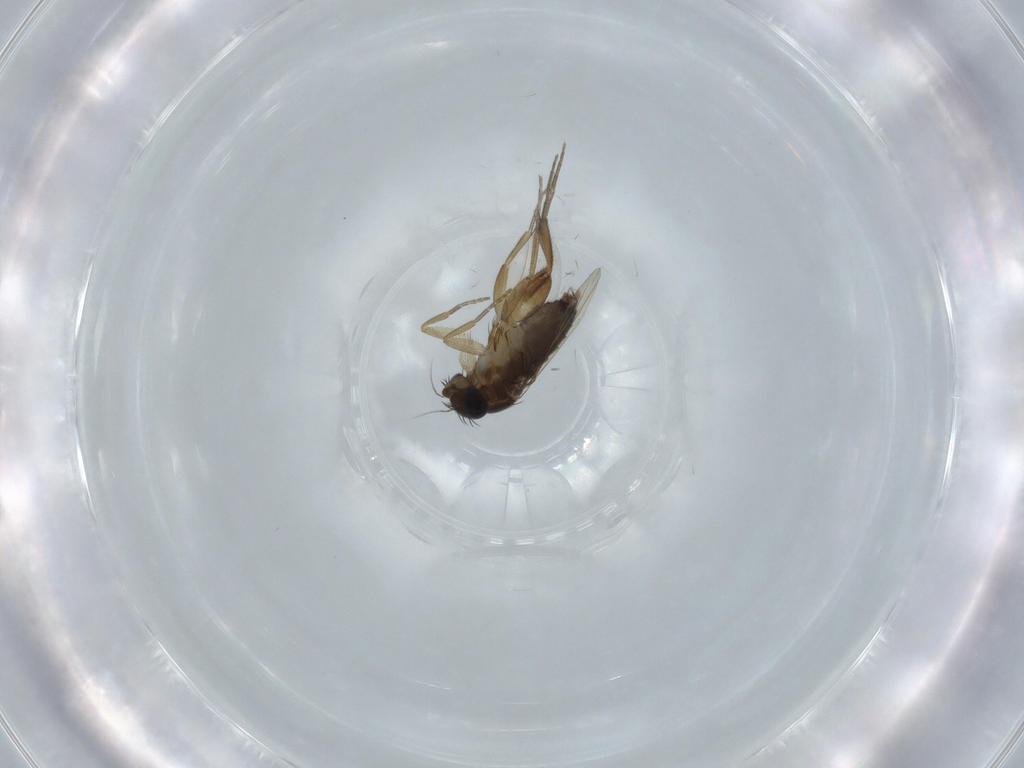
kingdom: Animalia
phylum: Arthropoda
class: Insecta
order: Diptera
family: Phoridae
